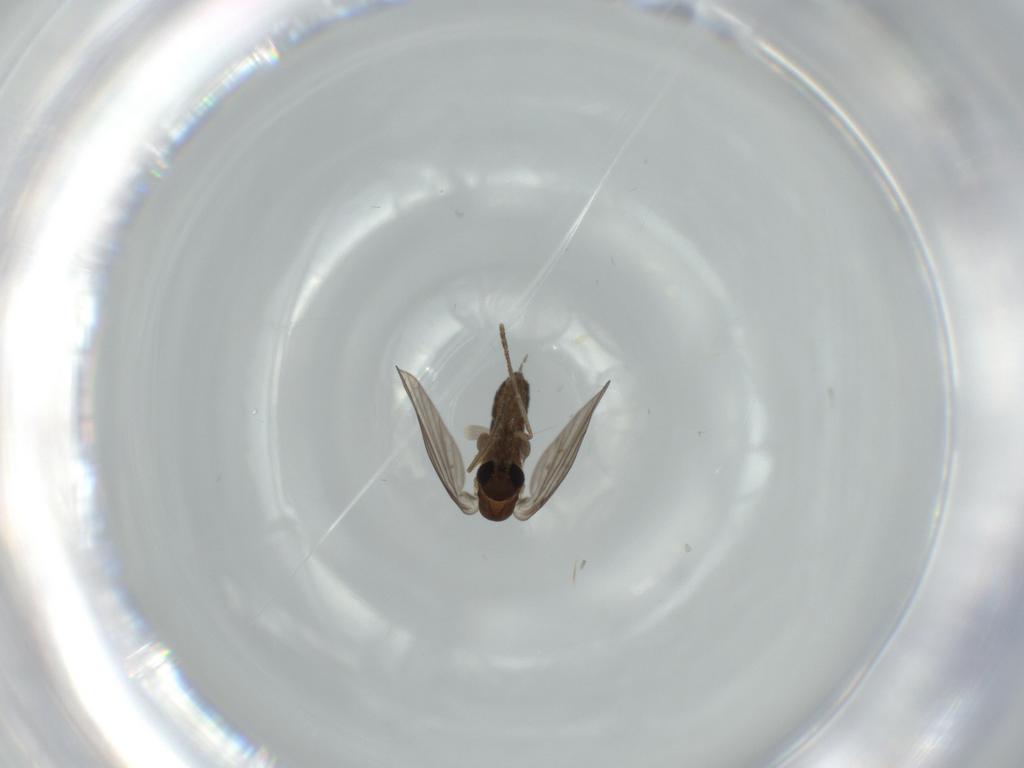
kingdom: Animalia
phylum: Arthropoda
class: Insecta
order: Diptera
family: Psychodidae
